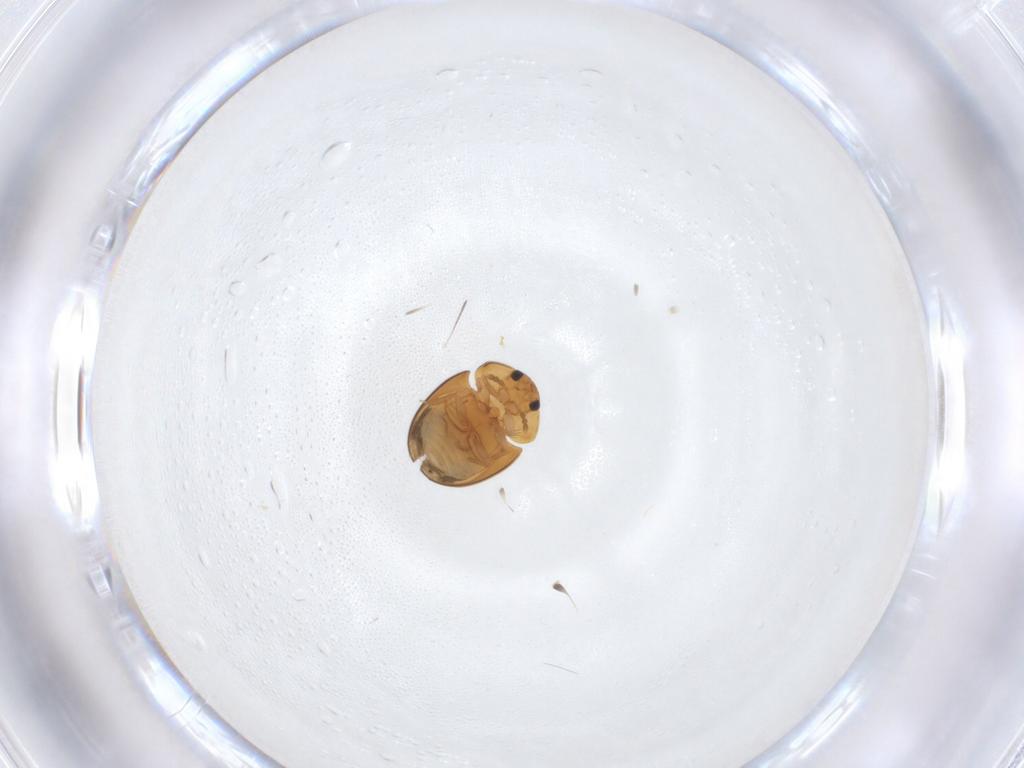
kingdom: Animalia
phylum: Arthropoda
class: Insecta
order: Coleoptera
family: Phalacridae
